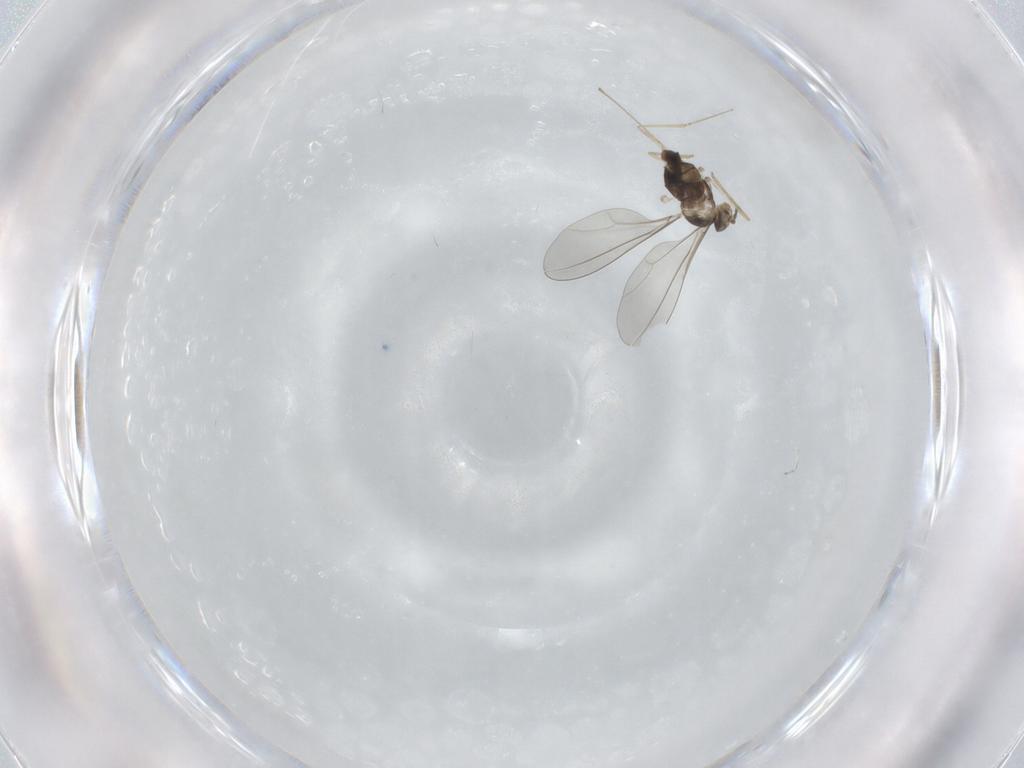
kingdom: Animalia
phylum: Arthropoda
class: Insecta
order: Diptera
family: Cecidomyiidae
